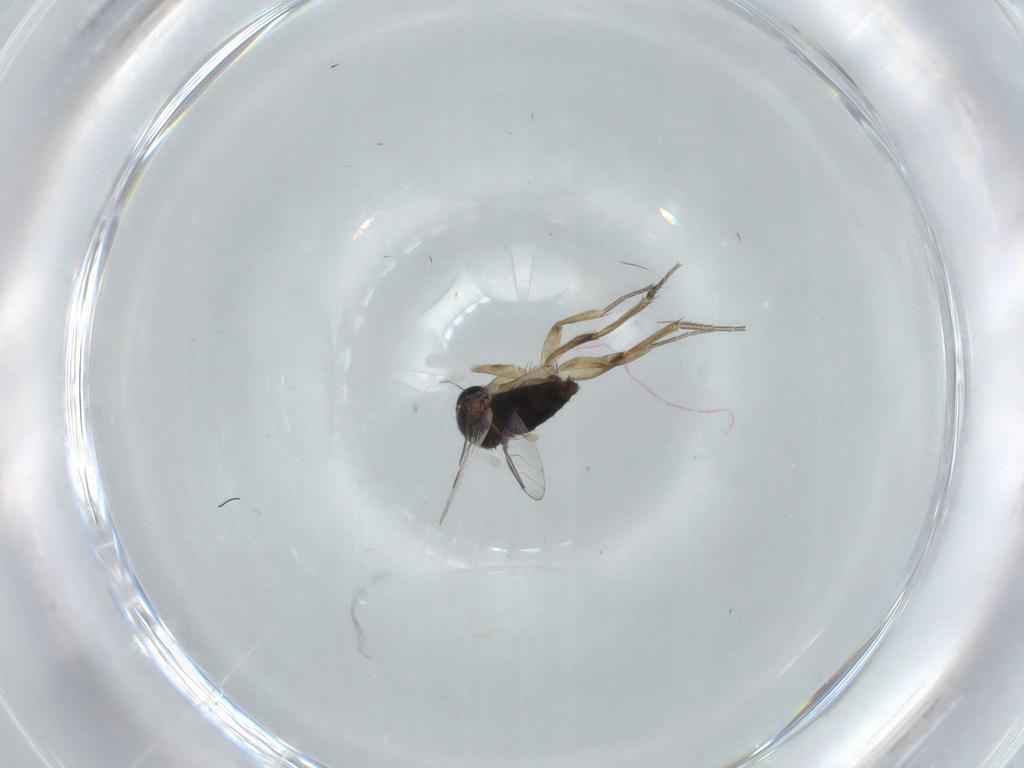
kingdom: Animalia
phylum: Arthropoda
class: Insecta
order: Diptera
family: Phoridae
